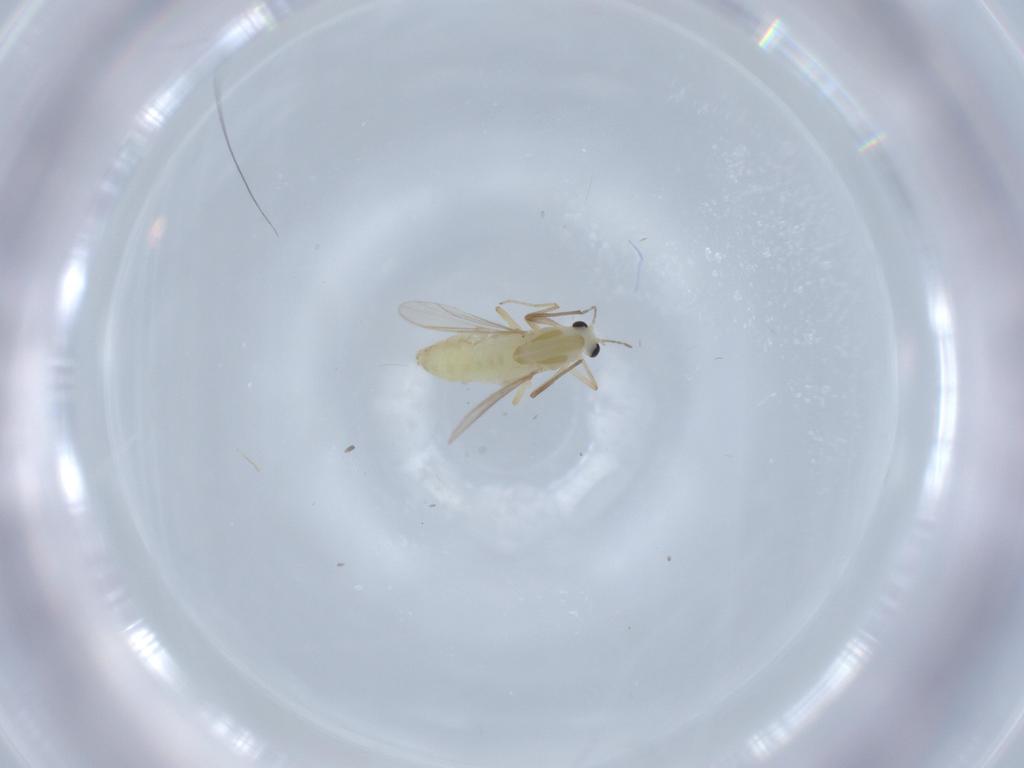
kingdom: Animalia
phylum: Arthropoda
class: Insecta
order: Diptera
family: Chironomidae
